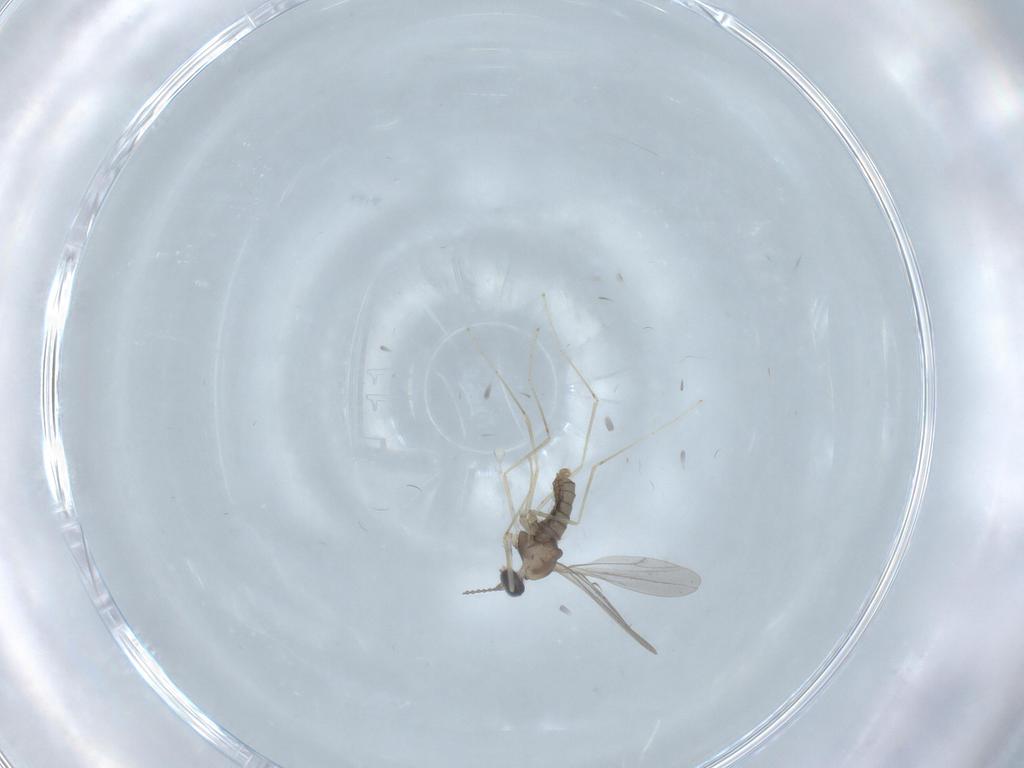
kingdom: Animalia
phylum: Arthropoda
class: Insecta
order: Diptera
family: Cecidomyiidae
